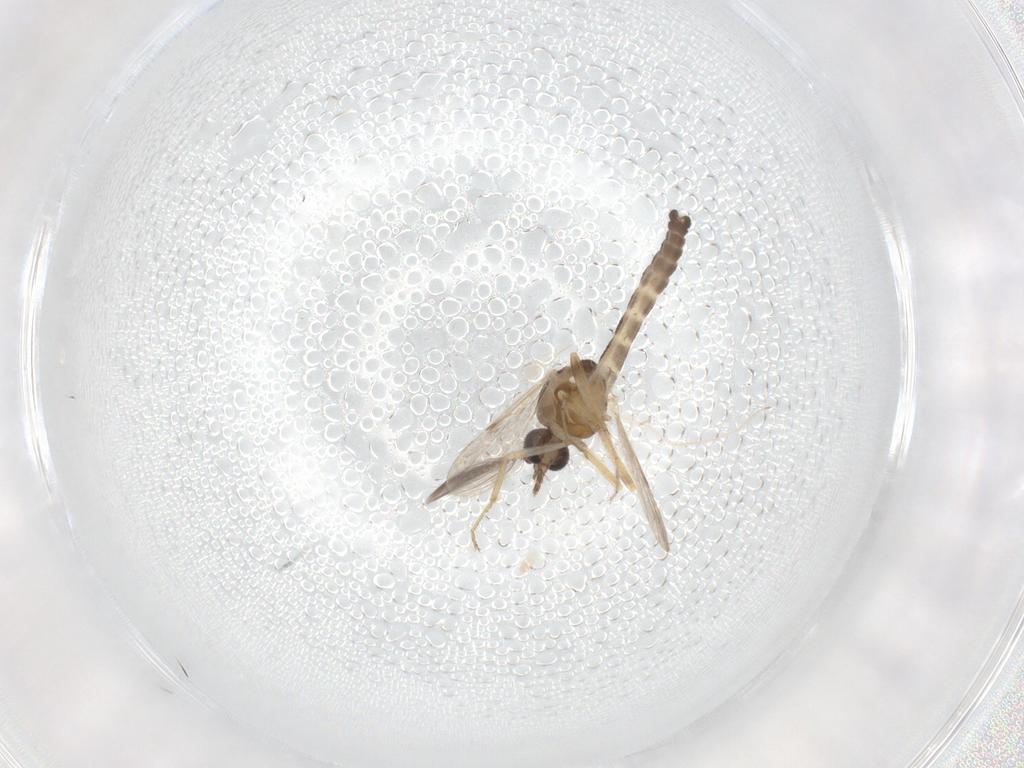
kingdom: Animalia
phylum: Arthropoda
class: Insecta
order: Diptera
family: Ceratopogonidae
